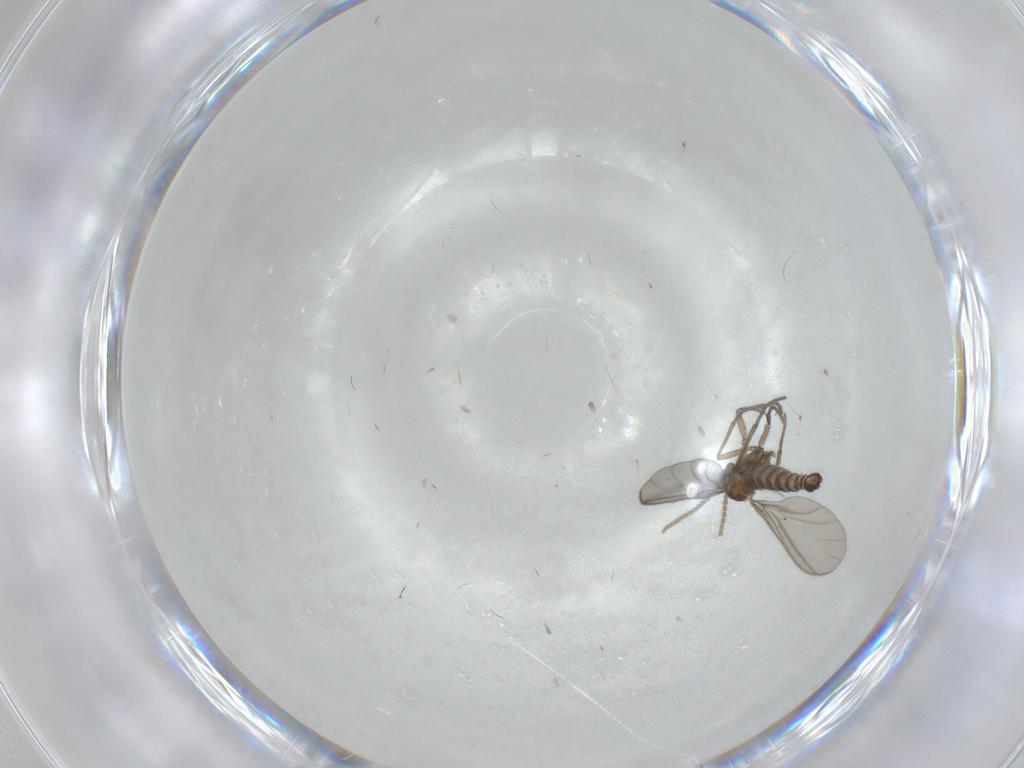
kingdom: Animalia
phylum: Arthropoda
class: Insecta
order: Diptera
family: Sciaridae
